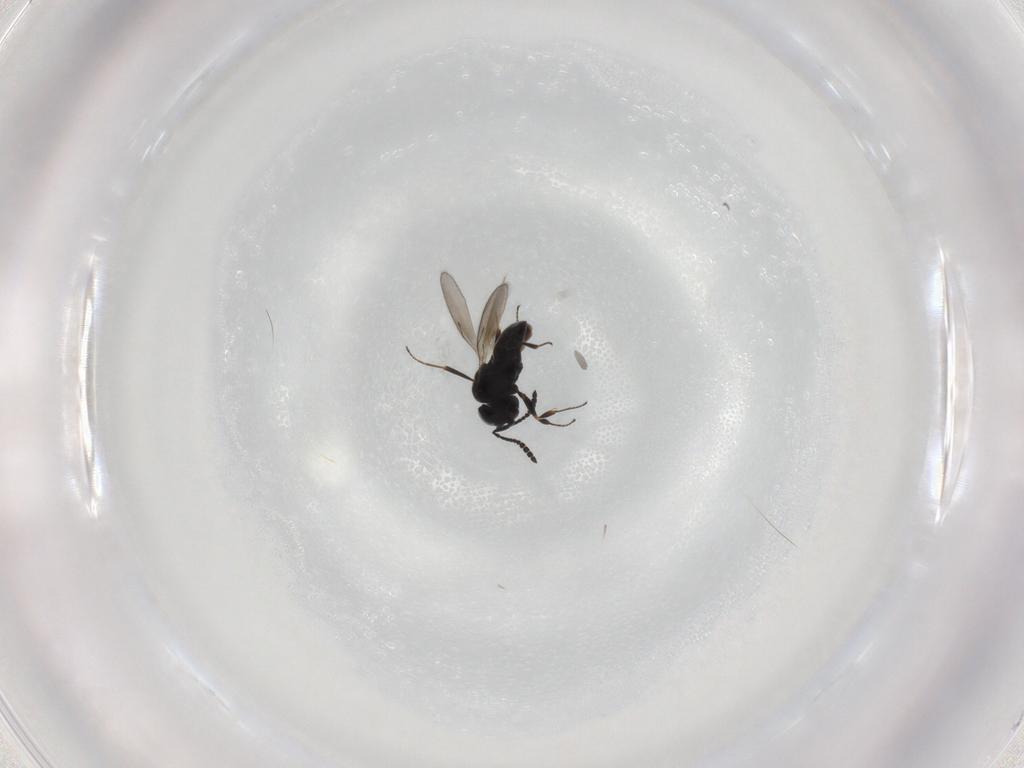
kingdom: Animalia
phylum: Arthropoda
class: Insecta
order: Hymenoptera
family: Scelionidae
